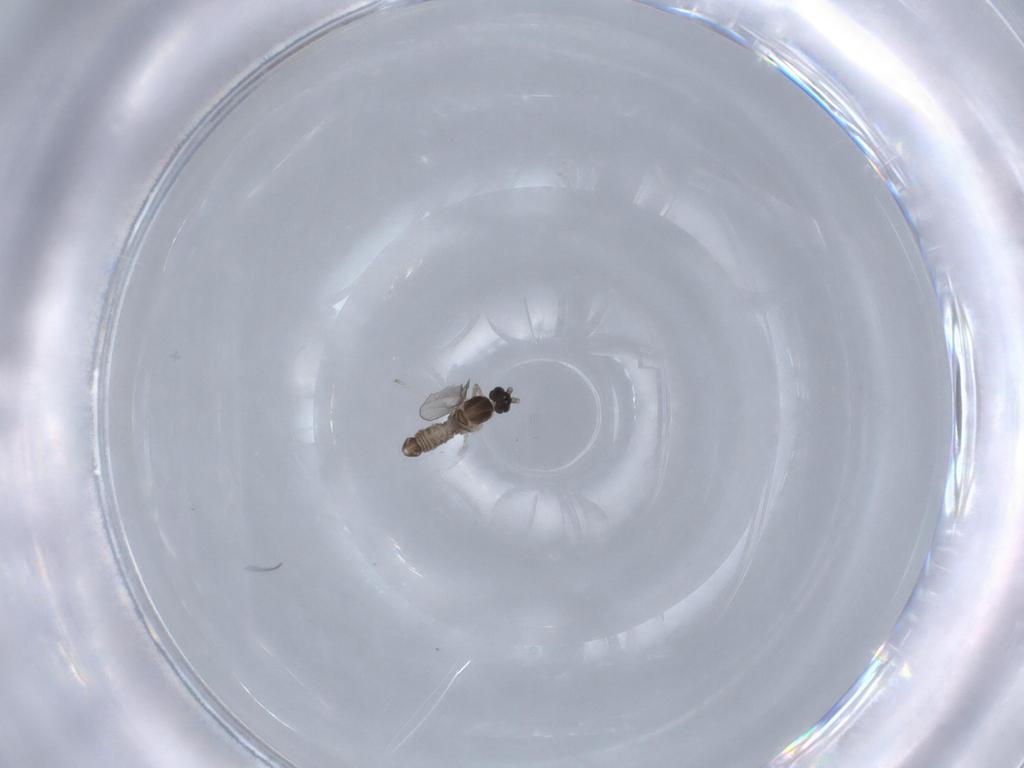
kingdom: Animalia
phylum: Arthropoda
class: Insecta
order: Diptera
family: Cecidomyiidae
